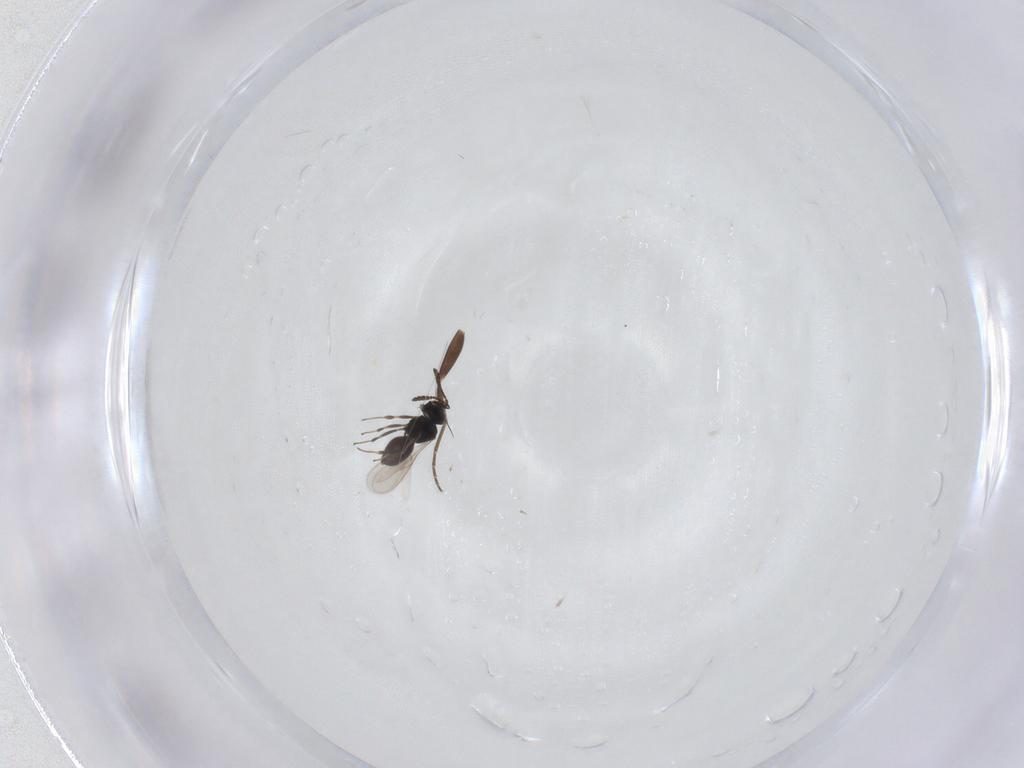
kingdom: Animalia
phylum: Arthropoda
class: Insecta
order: Hymenoptera
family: Scelionidae
